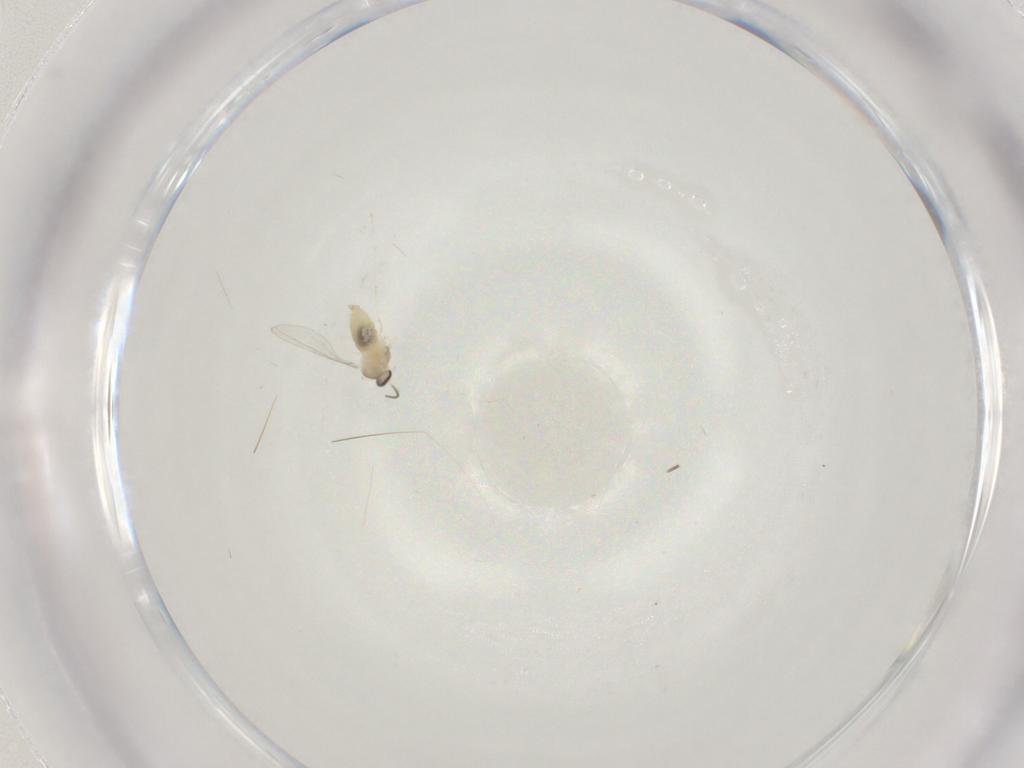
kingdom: Animalia
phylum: Arthropoda
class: Insecta
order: Diptera
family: Cecidomyiidae
